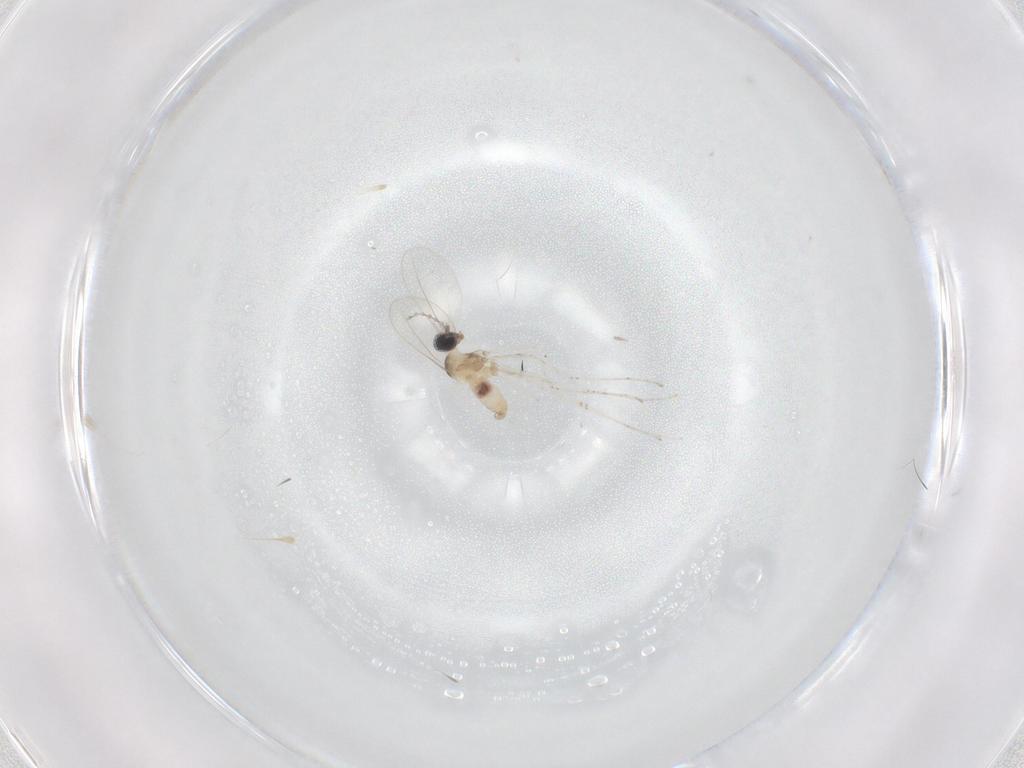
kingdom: Animalia
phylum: Arthropoda
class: Insecta
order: Diptera
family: Cecidomyiidae
